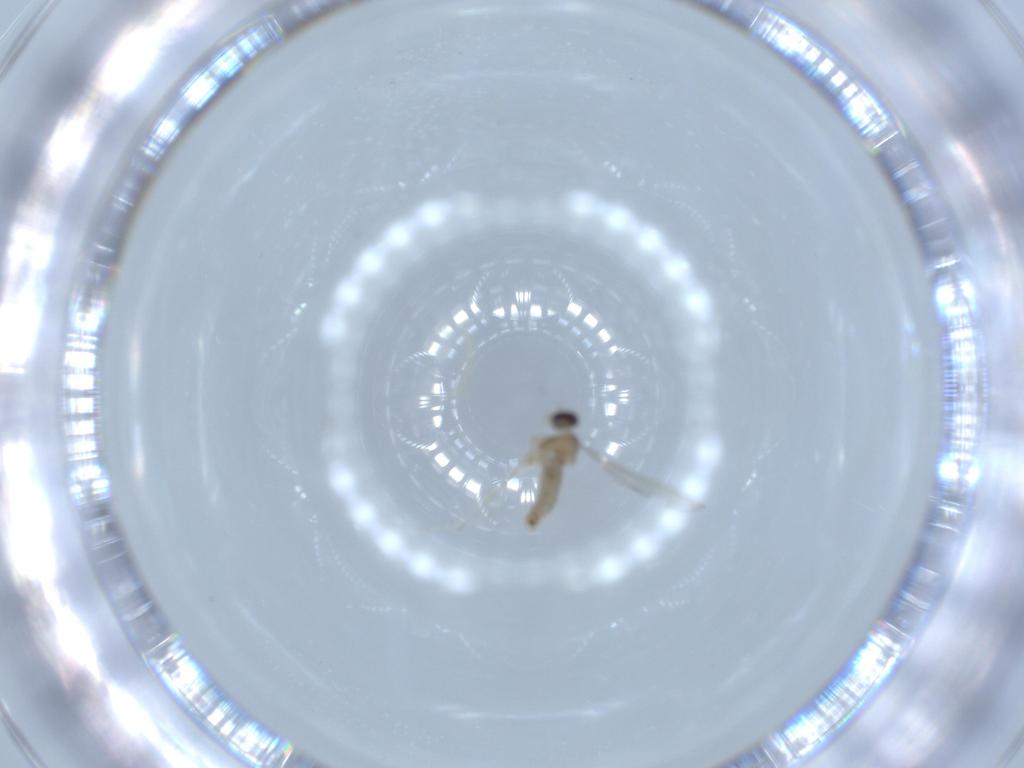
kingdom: Animalia
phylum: Arthropoda
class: Insecta
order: Diptera
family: Cecidomyiidae
